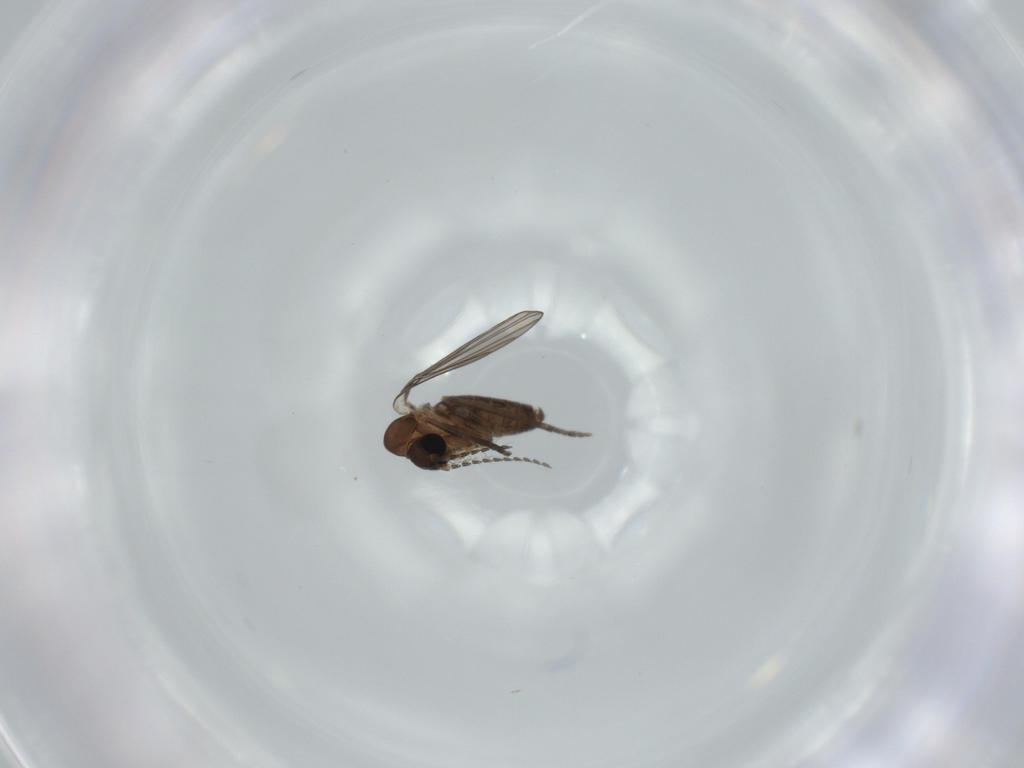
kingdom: Animalia
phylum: Arthropoda
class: Insecta
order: Diptera
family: Psychodidae
